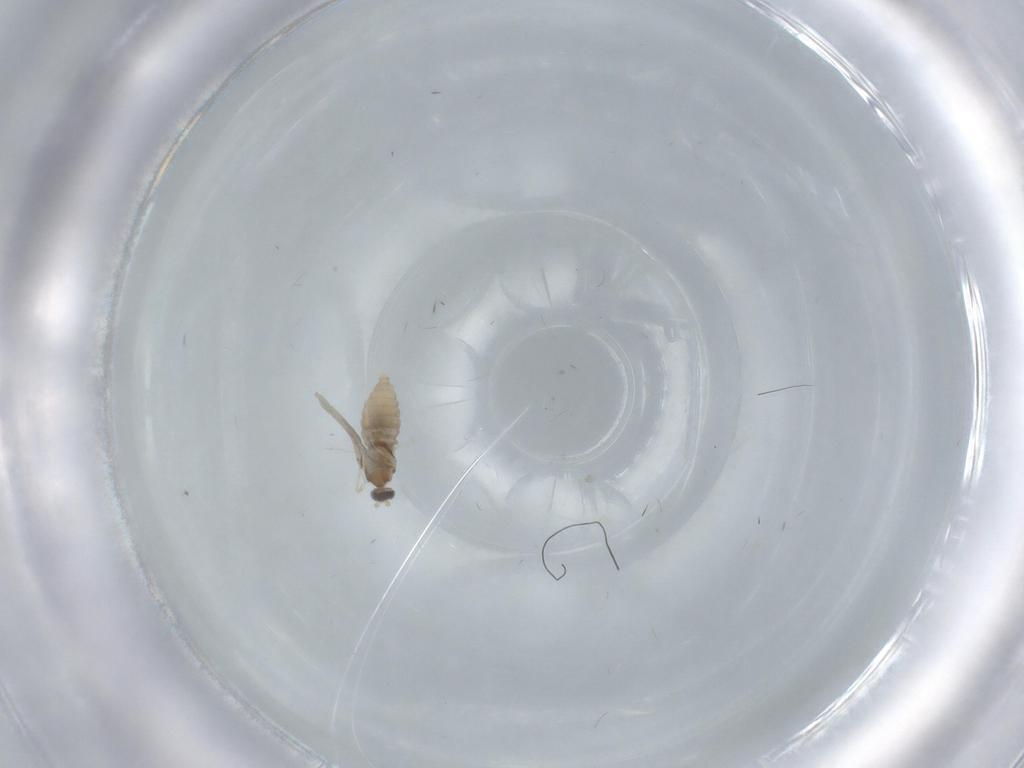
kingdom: Animalia
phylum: Arthropoda
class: Insecta
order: Diptera
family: Cecidomyiidae
